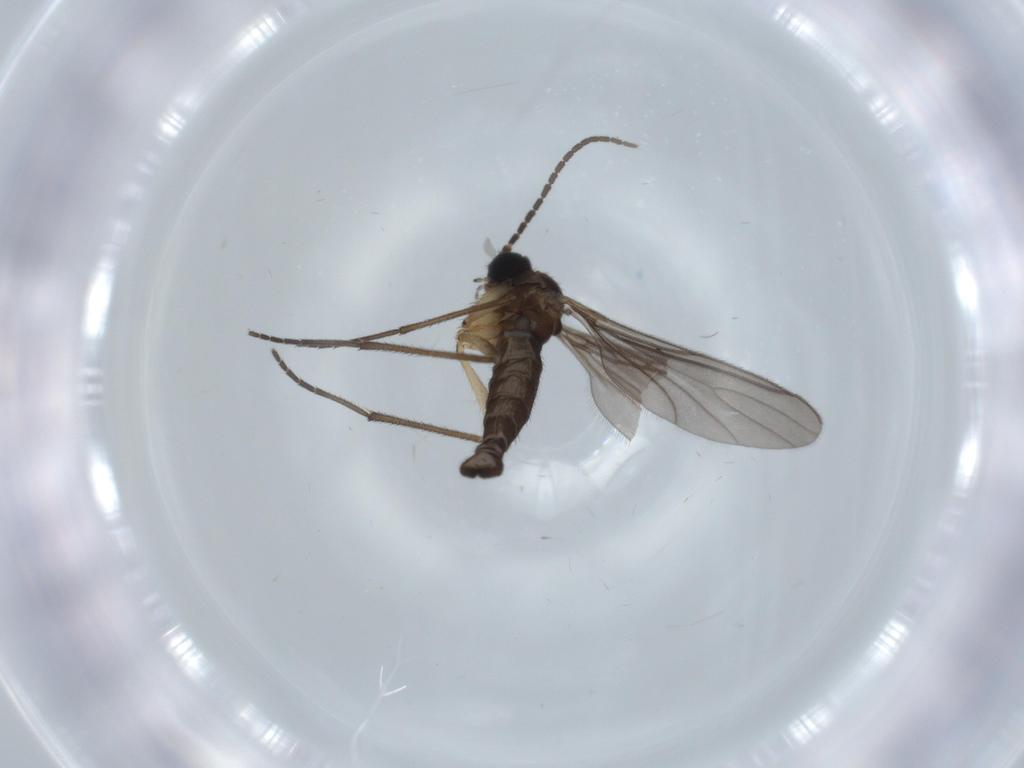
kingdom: Animalia
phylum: Arthropoda
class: Insecta
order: Diptera
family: Sciaridae
